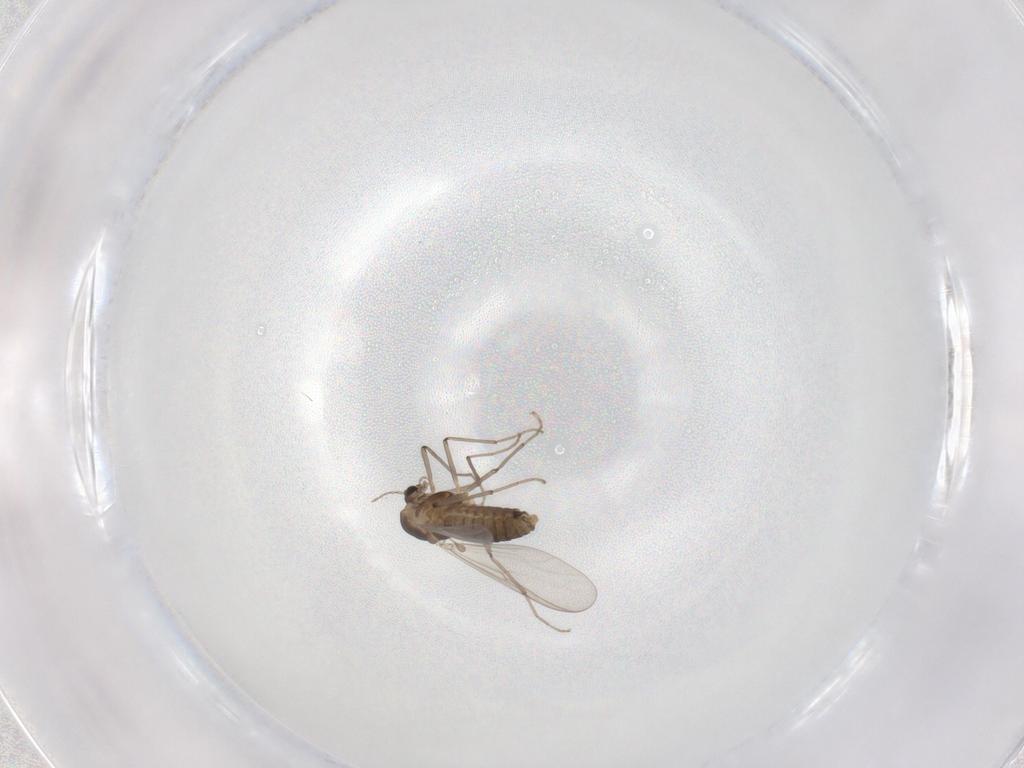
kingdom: Animalia
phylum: Arthropoda
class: Insecta
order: Diptera
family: Chironomidae
